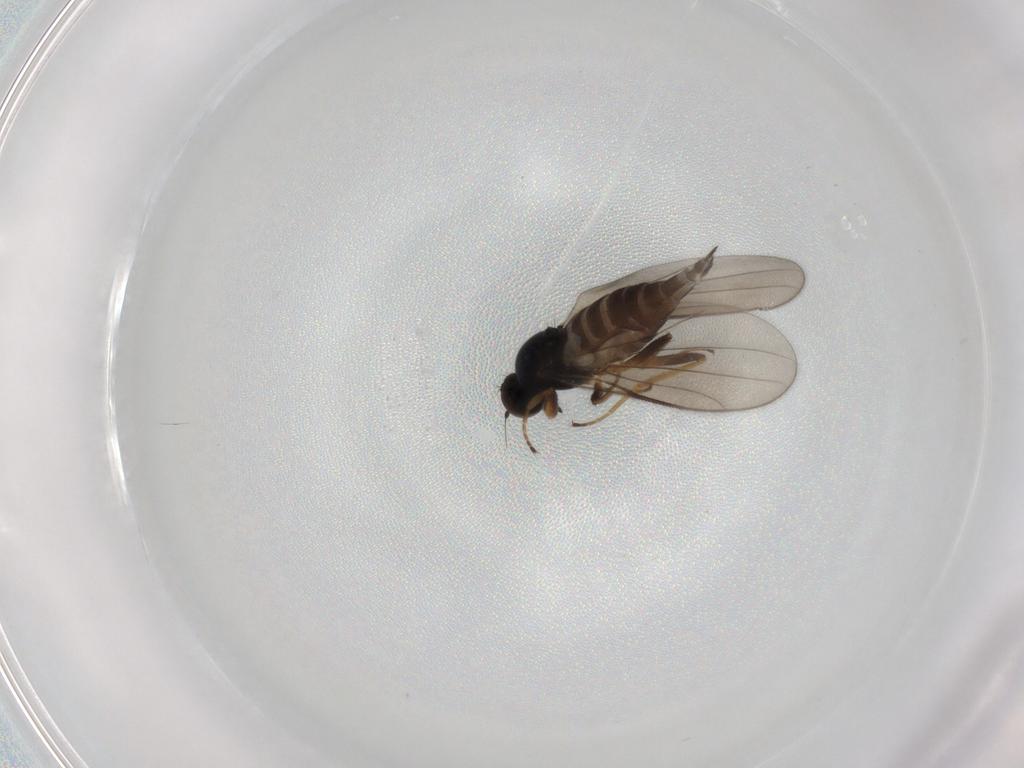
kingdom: Animalia
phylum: Arthropoda
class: Insecta
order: Diptera
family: Hybotidae
